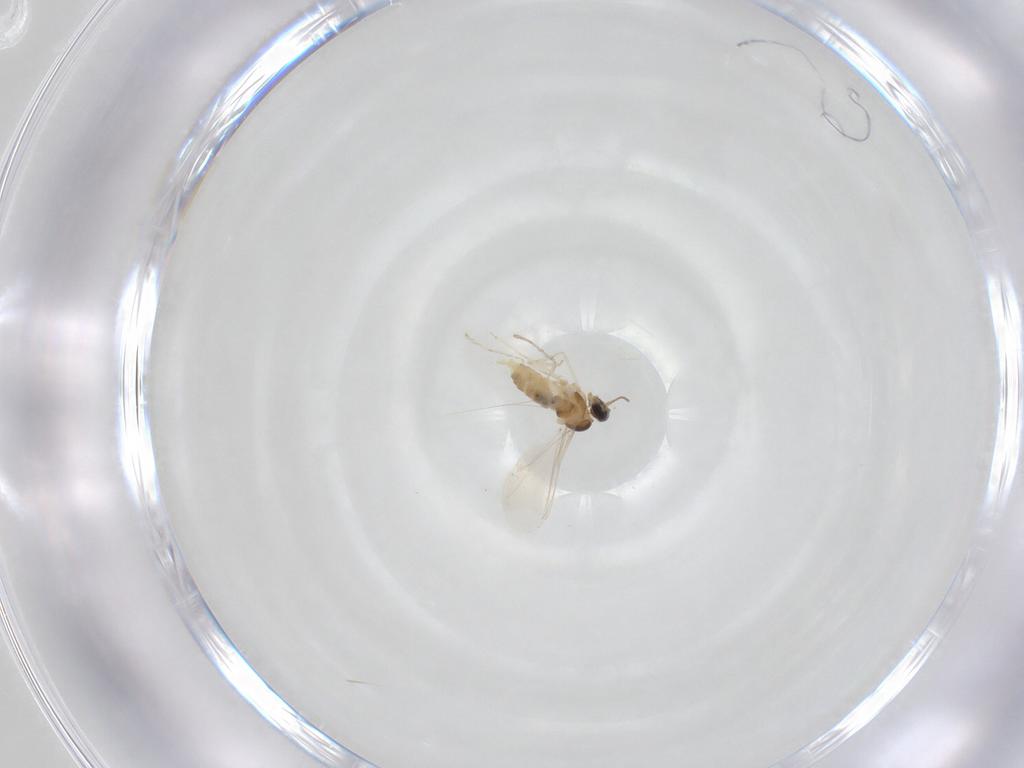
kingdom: Animalia
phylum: Arthropoda
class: Insecta
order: Diptera
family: Cecidomyiidae
